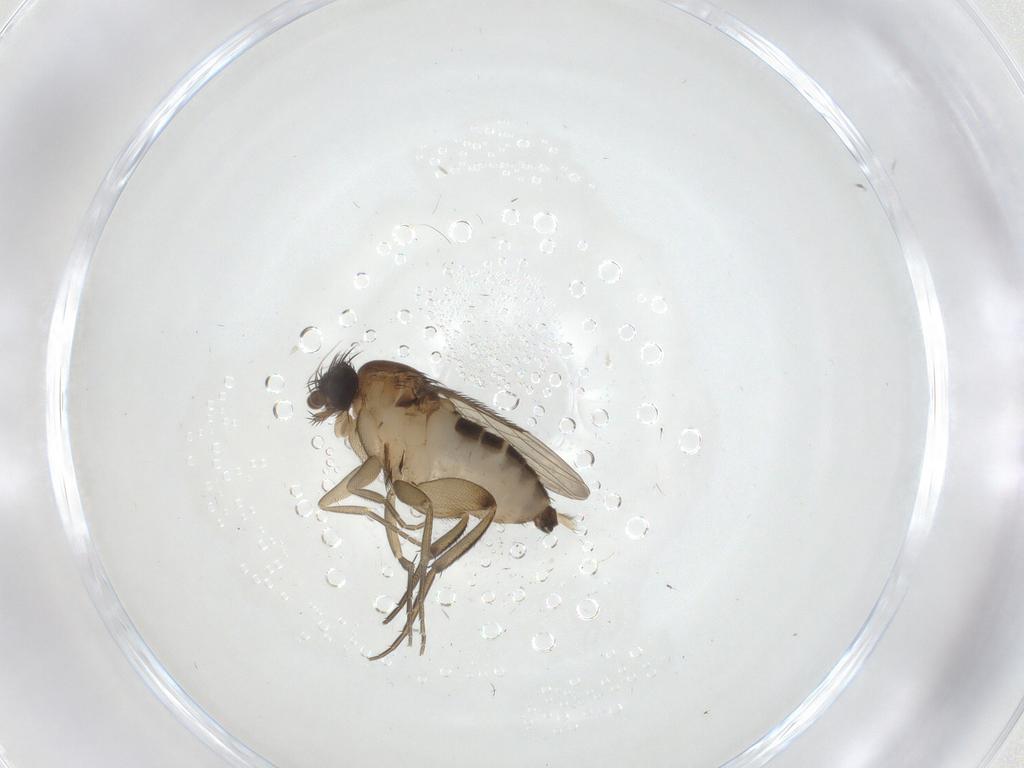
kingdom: Animalia
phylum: Arthropoda
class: Insecta
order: Diptera
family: Phoridae
